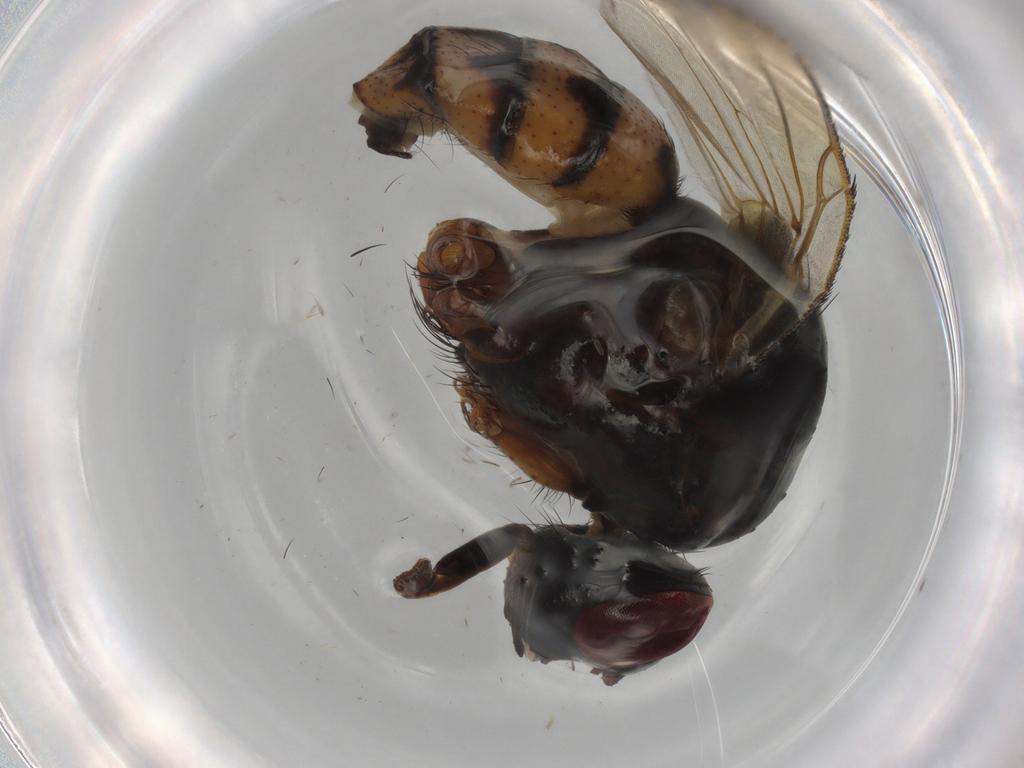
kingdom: Animalia
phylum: Arthropoda
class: Insecta
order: Diptera
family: Muscidae
